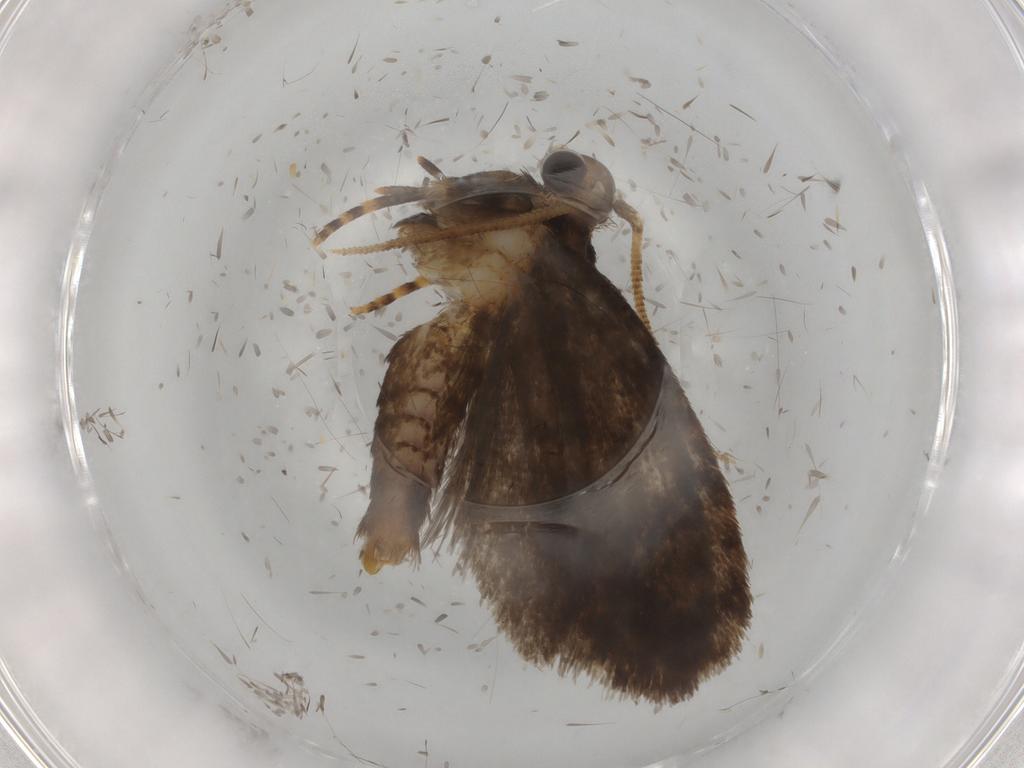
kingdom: Animalia
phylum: Arthropoda
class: Insecta
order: Lepidoptera
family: Tineidae
